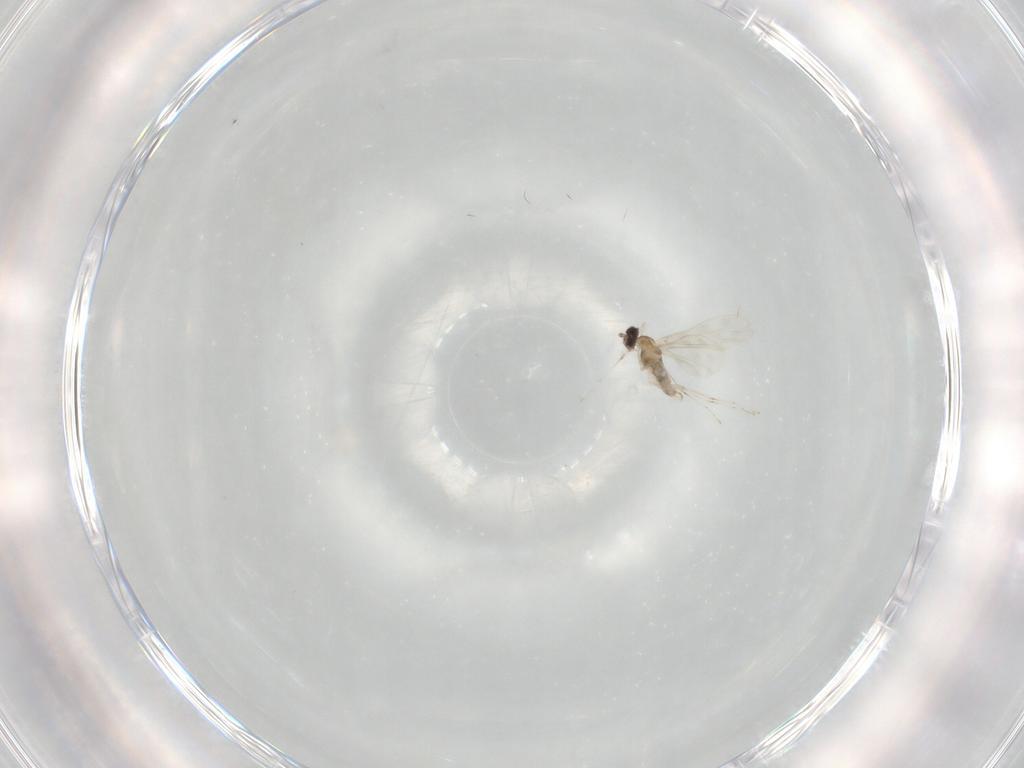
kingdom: Animalia
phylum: Arthropoda
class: Insecta
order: Diptera
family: Cecidomyiidae
